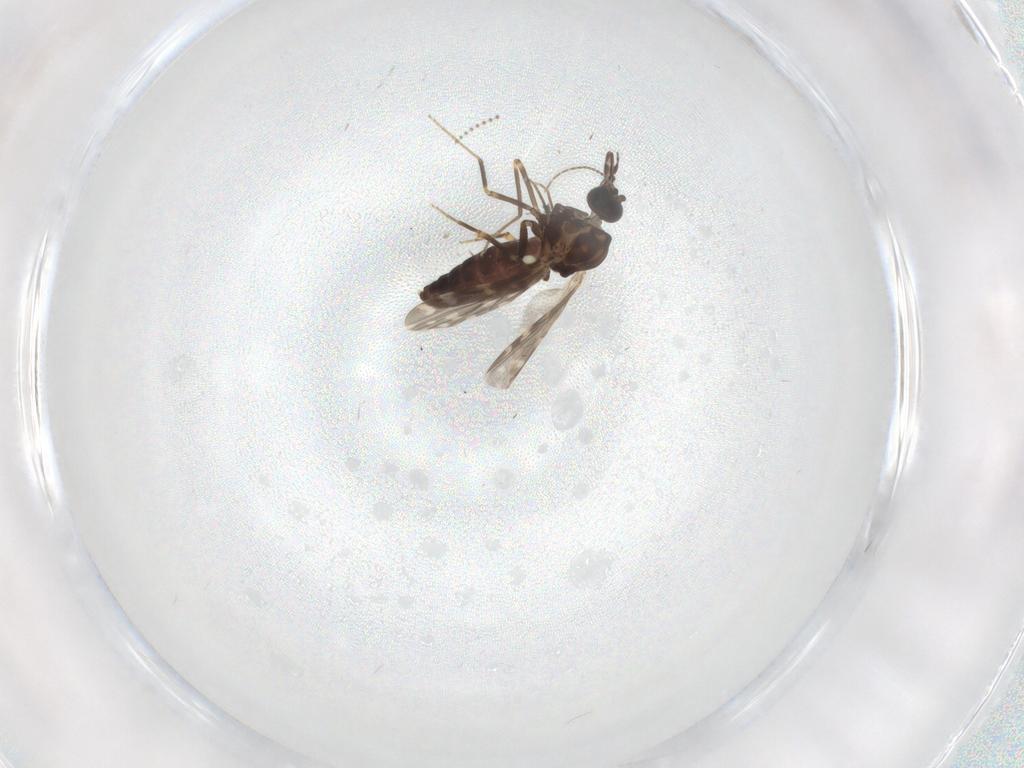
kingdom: Animalia
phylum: Arthropoda
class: Insecta
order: Diptera
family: Ceratopogonidae
